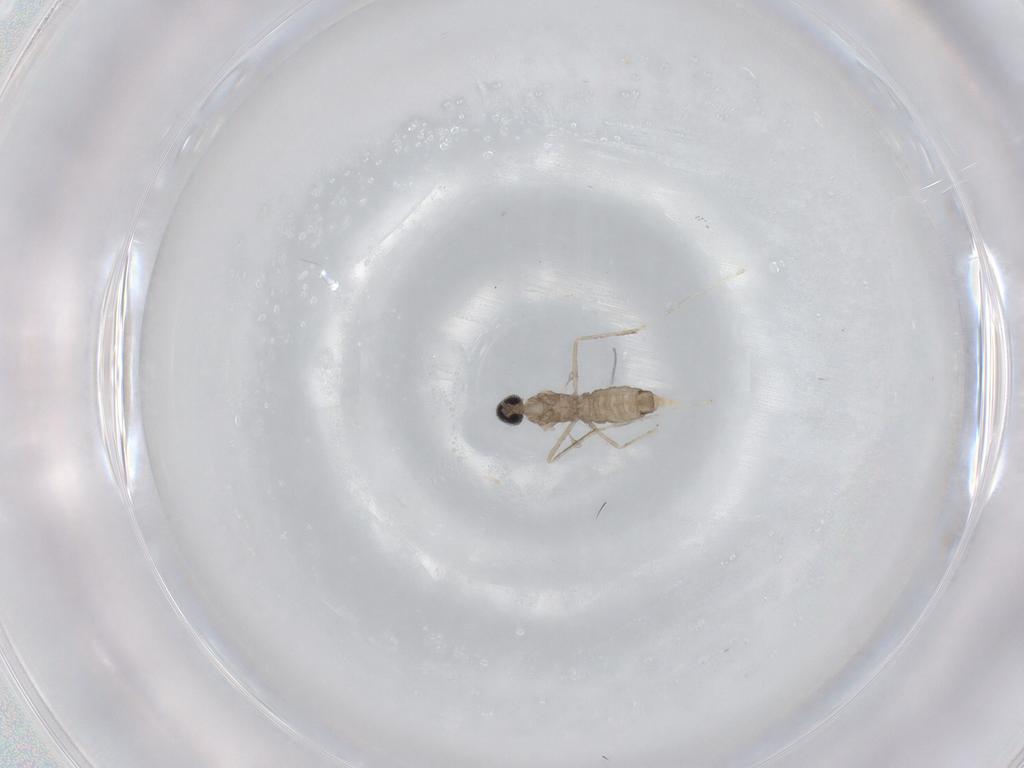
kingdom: Animalia
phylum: Arthropoda
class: Insecta
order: Diptera
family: Cecidomyiidae
